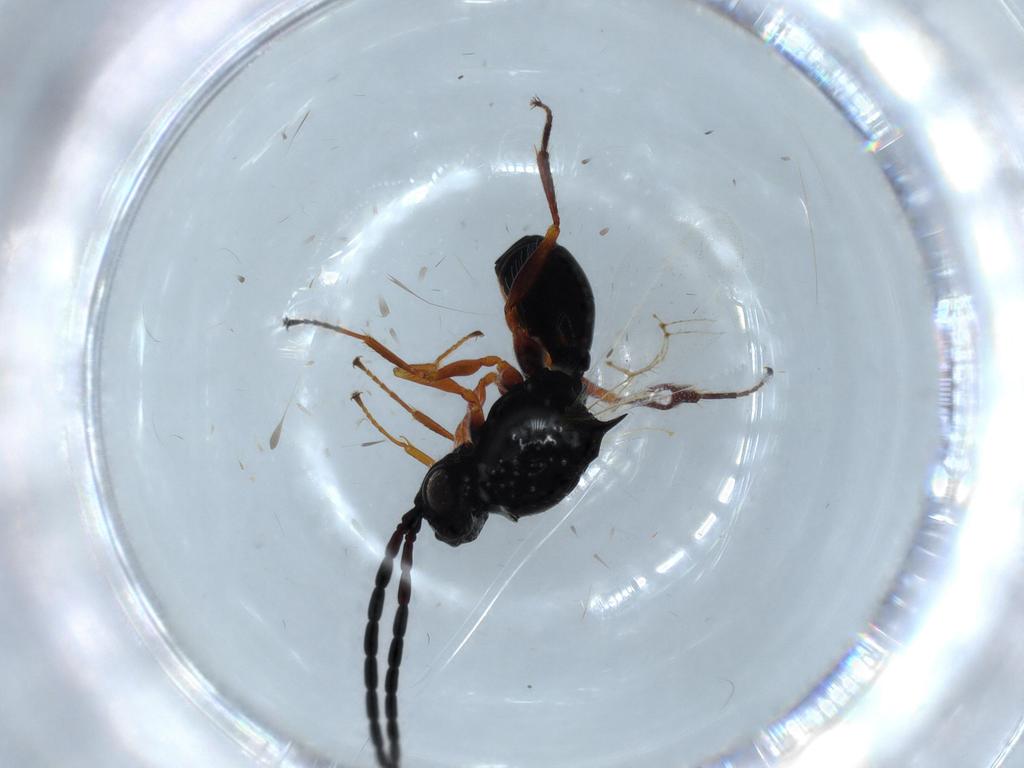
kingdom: Animalia
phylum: Arthropoda
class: Insecta
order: Hymenoptera
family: Figitidae
